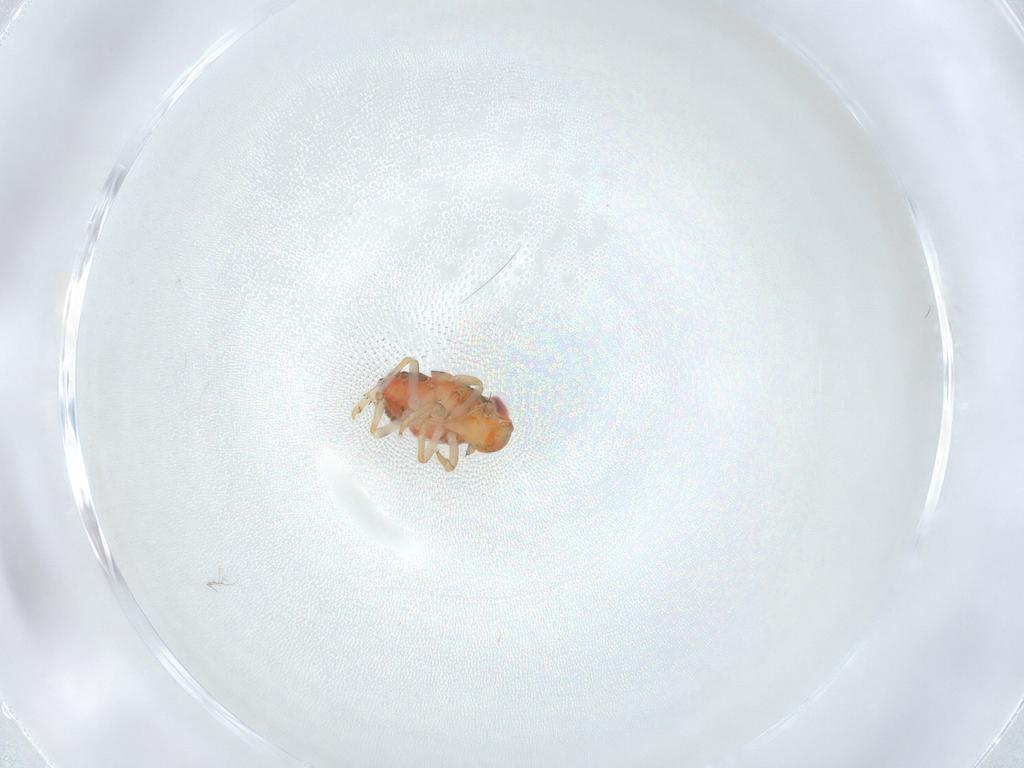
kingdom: Animalia
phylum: Arthropoda
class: Insecta
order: Hemiptera
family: Issidae
